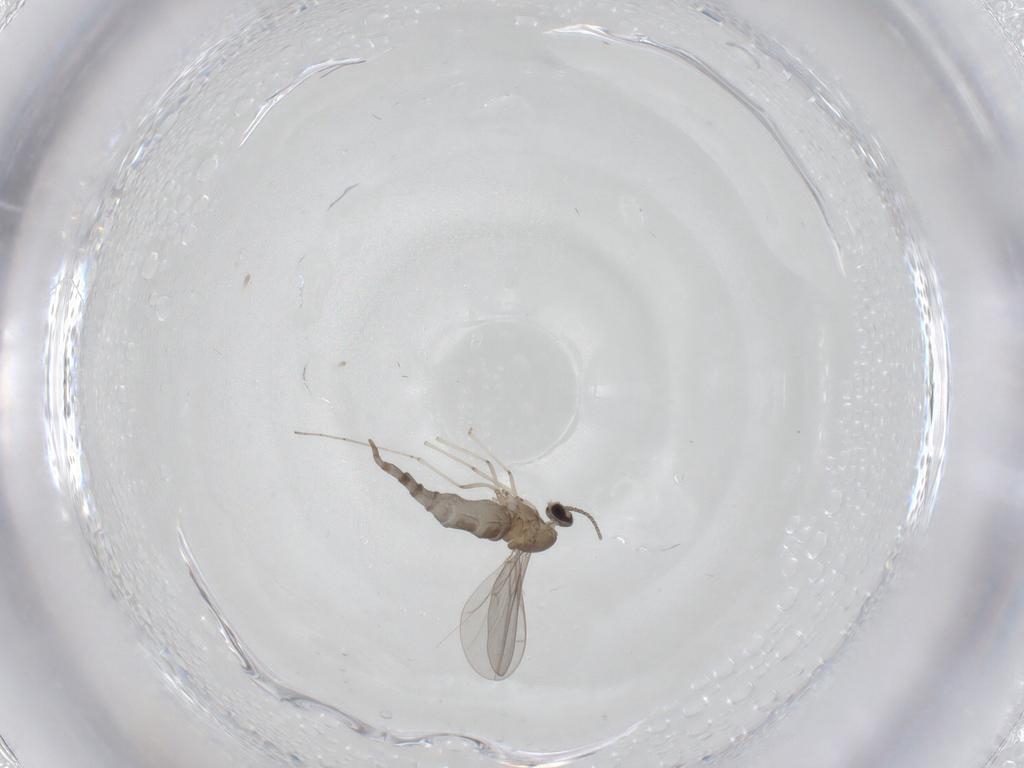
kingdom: Animalia
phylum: Arthropoda
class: Insecta
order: Diptera
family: Cecidomyiidae
